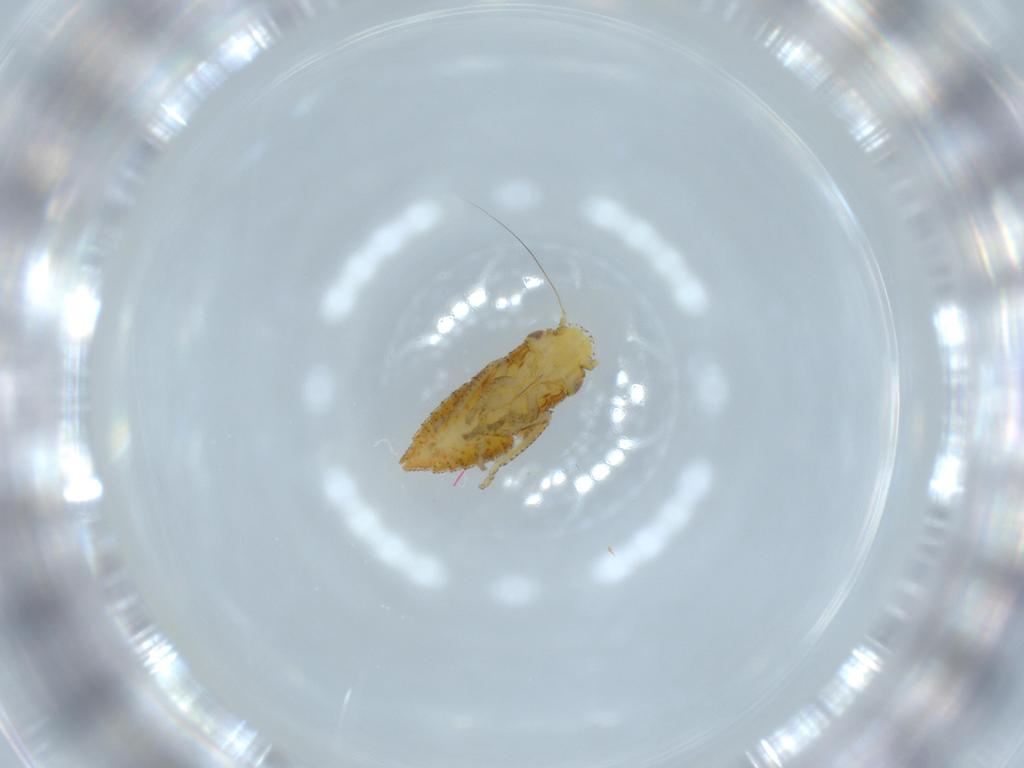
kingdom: Animalia
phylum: Arthropoda
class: Insecta
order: Hemiptera
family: Cicadellidae
